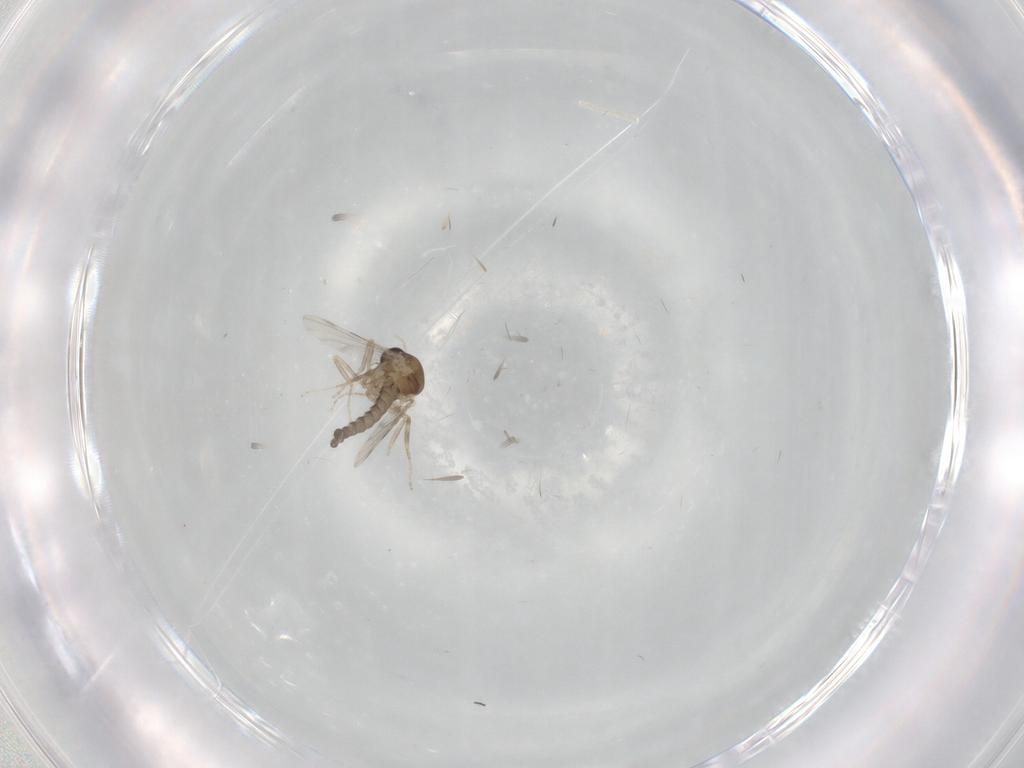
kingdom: Animalia
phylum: Arthropoda
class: Insecta
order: Diptera
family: Ceratopogonidae
